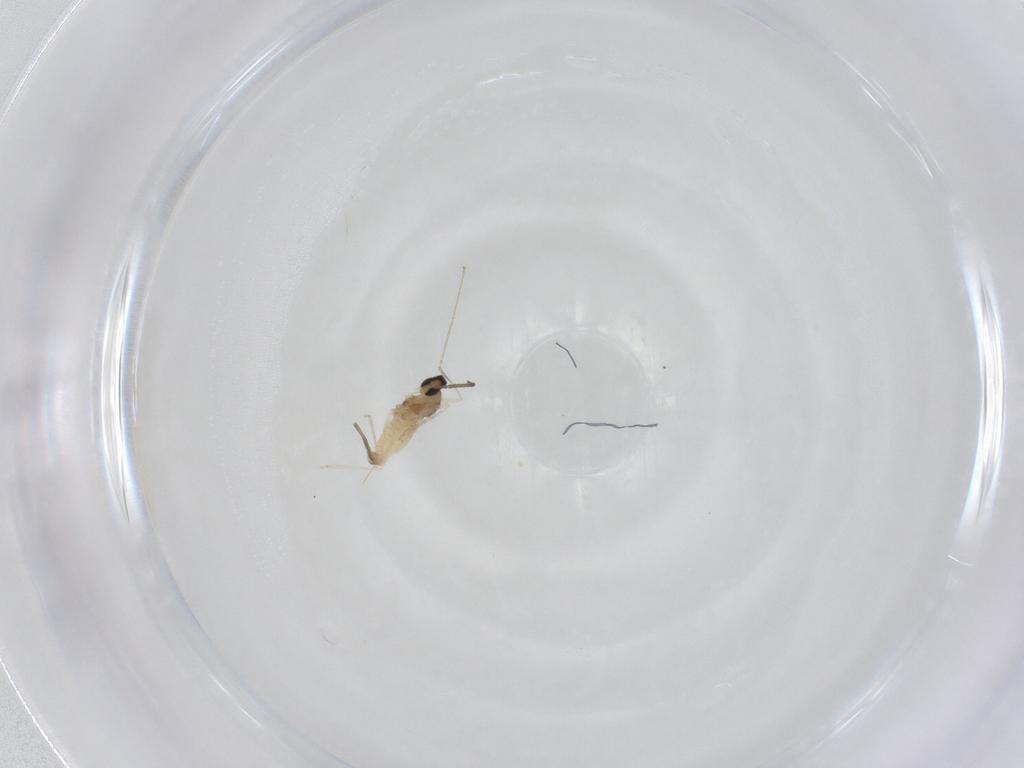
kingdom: Animalia
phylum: Arthropoda
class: Insecta
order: Diptera
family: Cecidomyiidae
